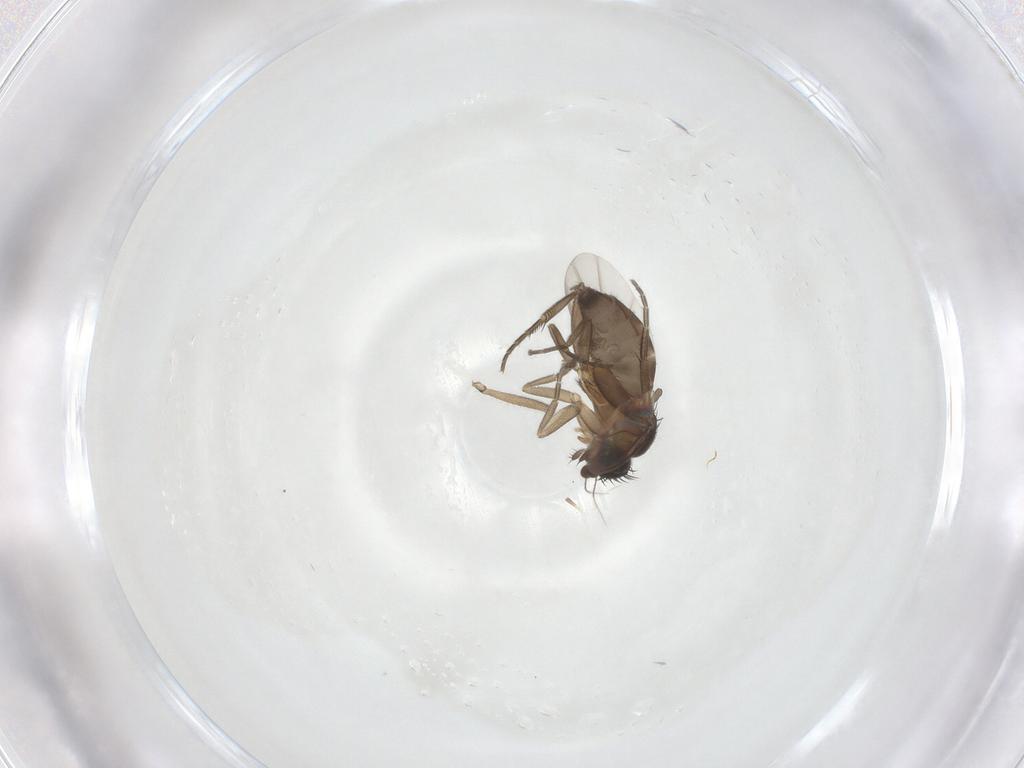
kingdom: Animalia
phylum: Arthropoda
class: Insecta
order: Diptera
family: Phoridae
